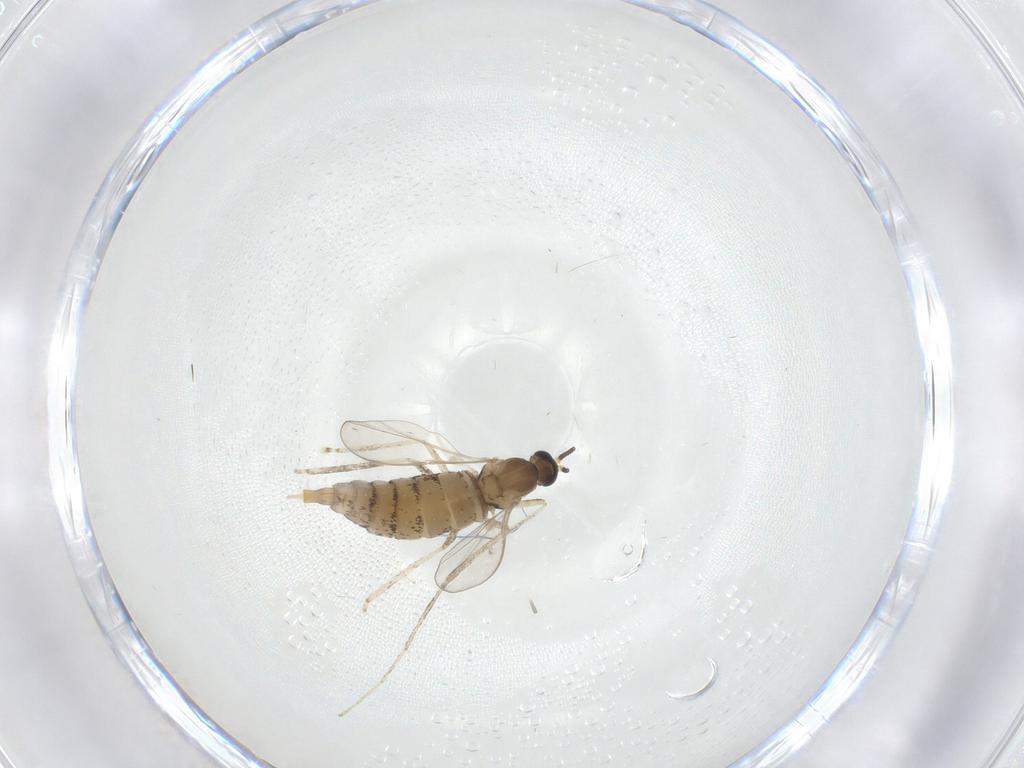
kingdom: Animalia
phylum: Arthropoda
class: Insecta
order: Diptera
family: Cecidomyiidae
